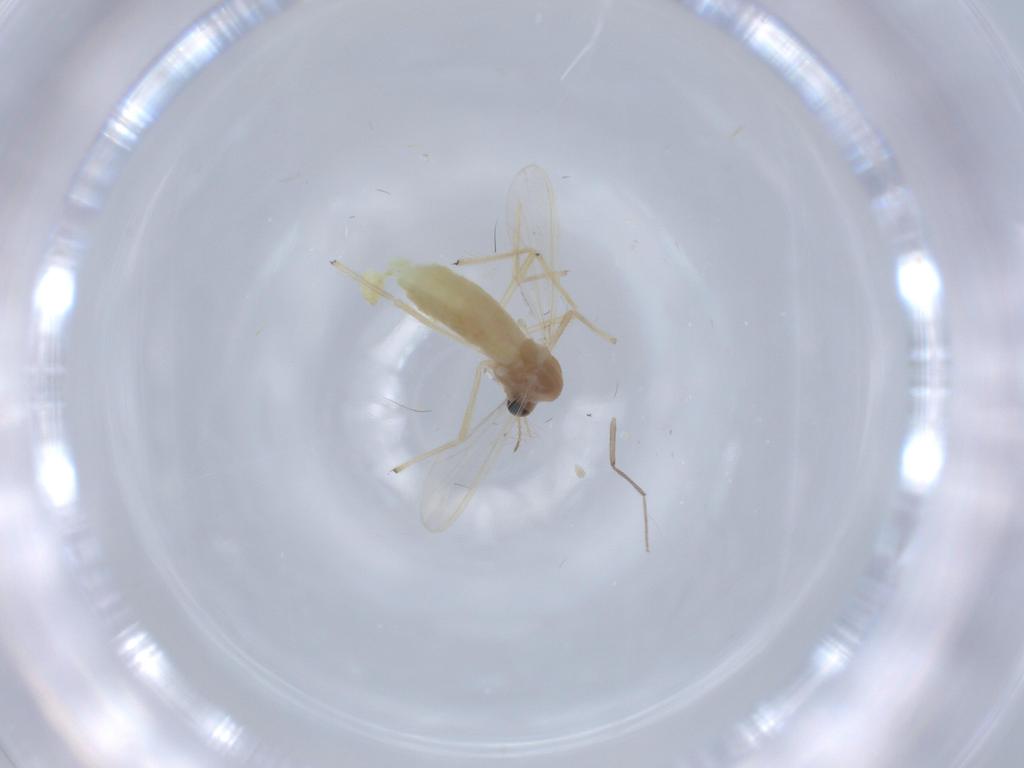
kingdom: Animalia
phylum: Arthropoda
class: Insecta
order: Diptera
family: Chironomidae
